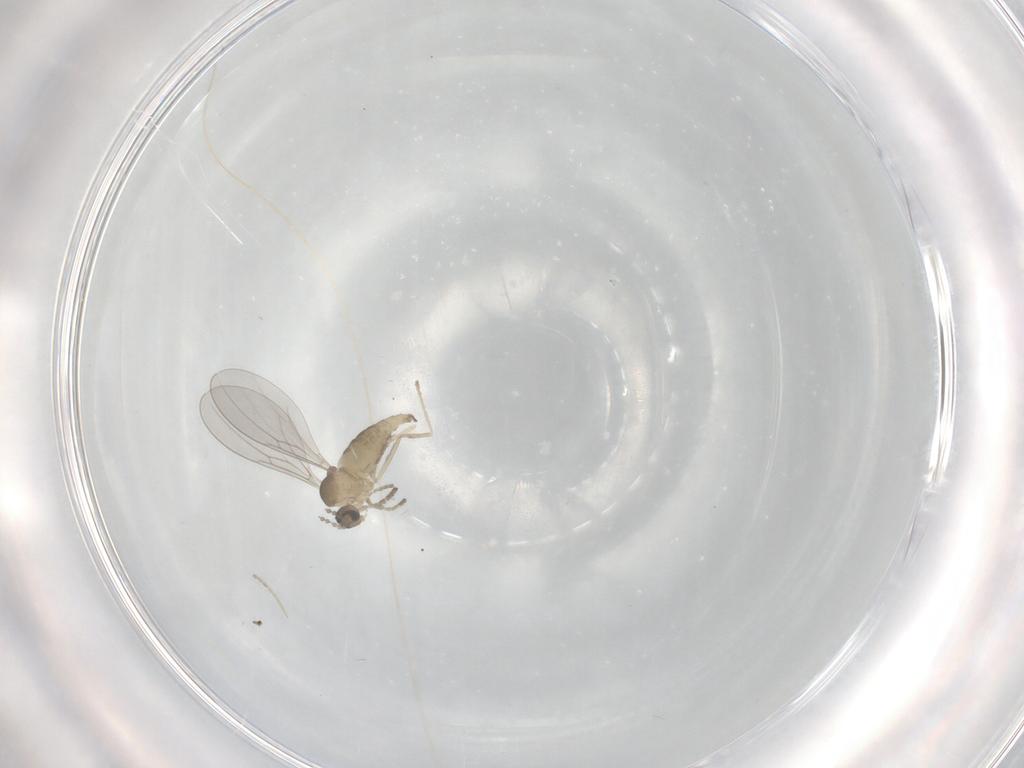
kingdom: Animalia
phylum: Arthropoda
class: Insecta
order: Diptera
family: Cecidomyiidae
